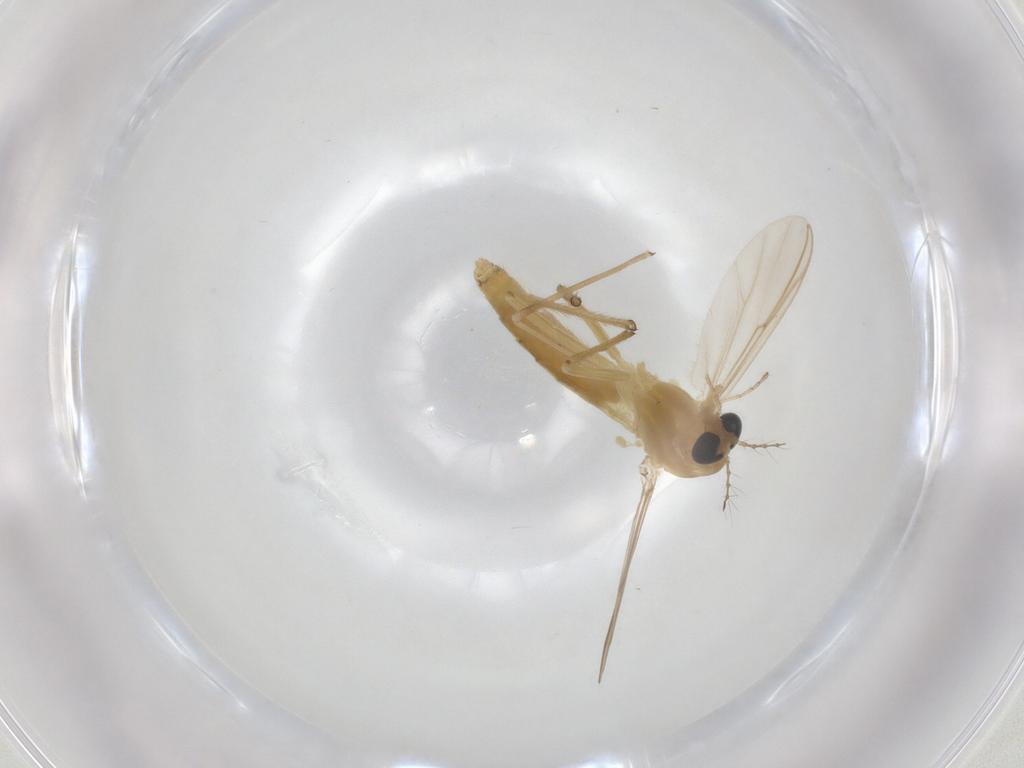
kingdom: Animalia
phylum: Arthropoda
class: Insecta
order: Diptera
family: Chironomidae
